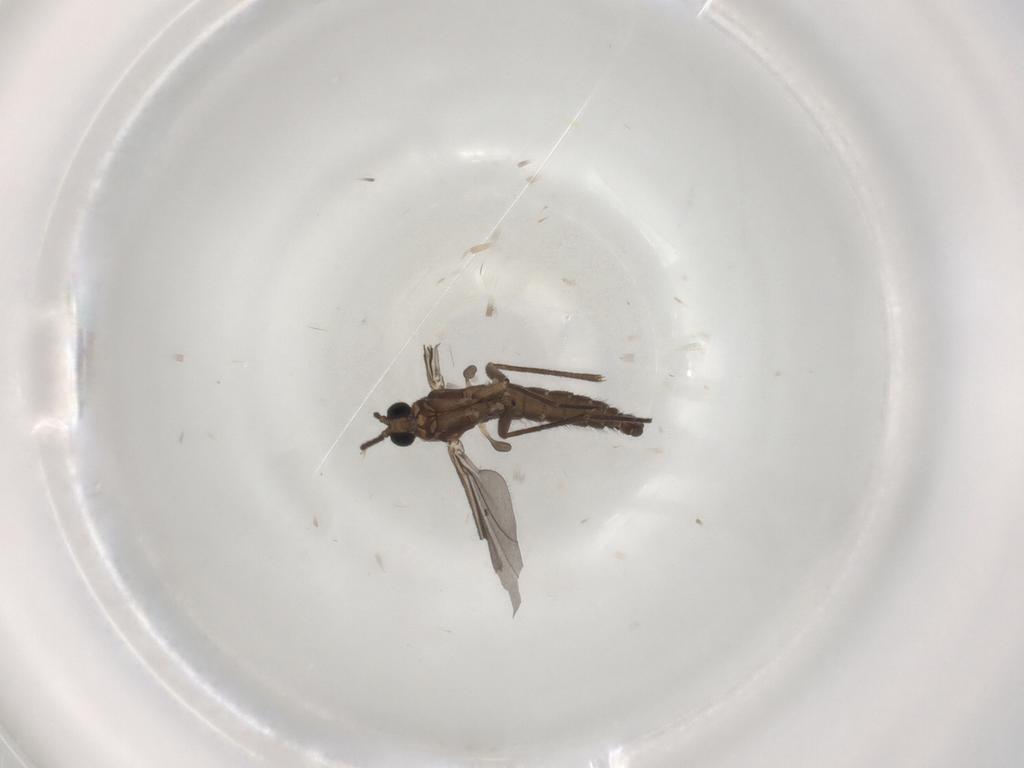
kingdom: Animalia
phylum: Arthropoda
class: Insecta
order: Diptera
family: Sciaridae
